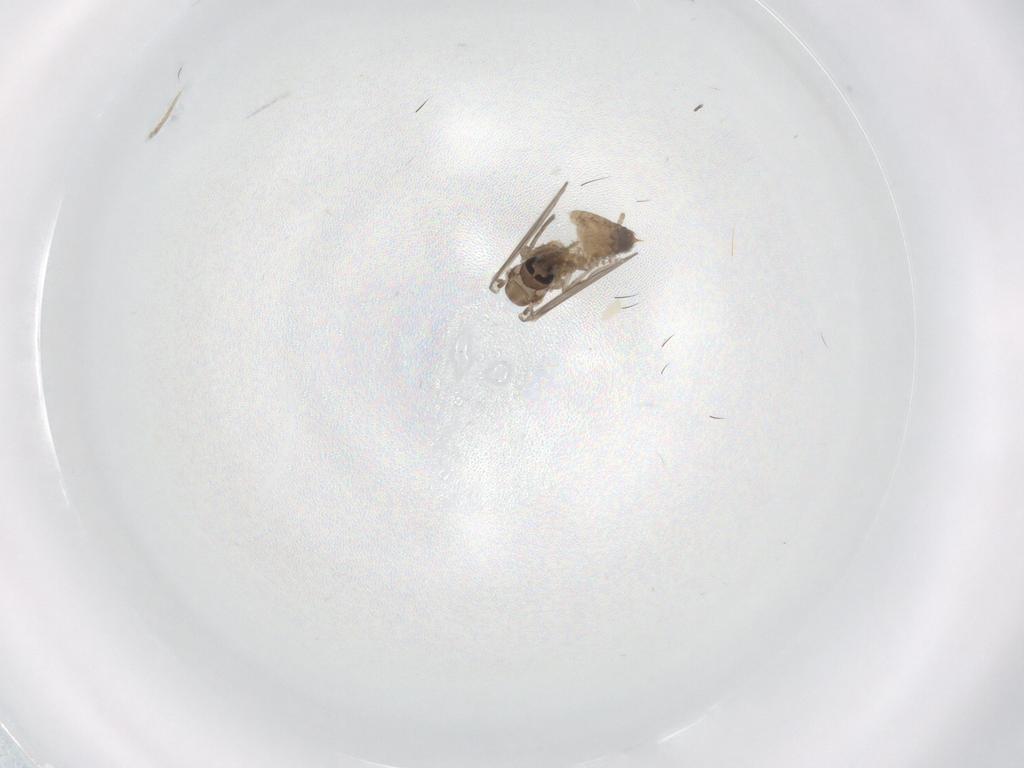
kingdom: Animalia
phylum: Arthropoda
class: Insecta
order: Diptera
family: Psychodidae
